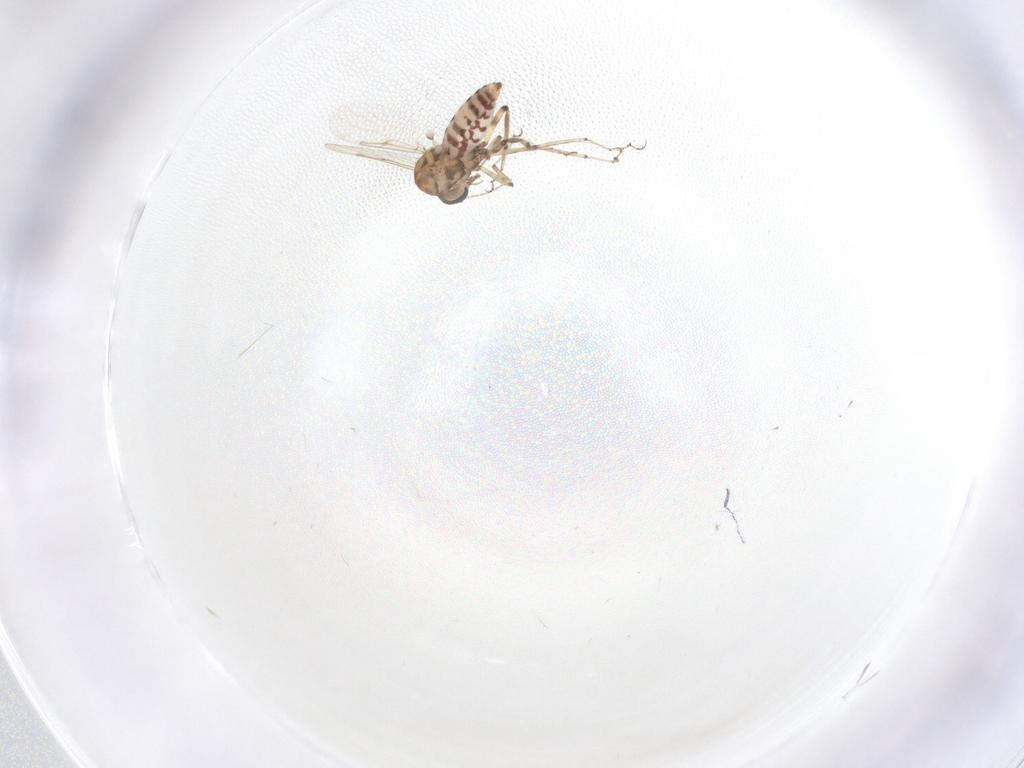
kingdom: Animalia
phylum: Arthropoda
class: Insecta
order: Diptera
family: Ceratopogonidae
